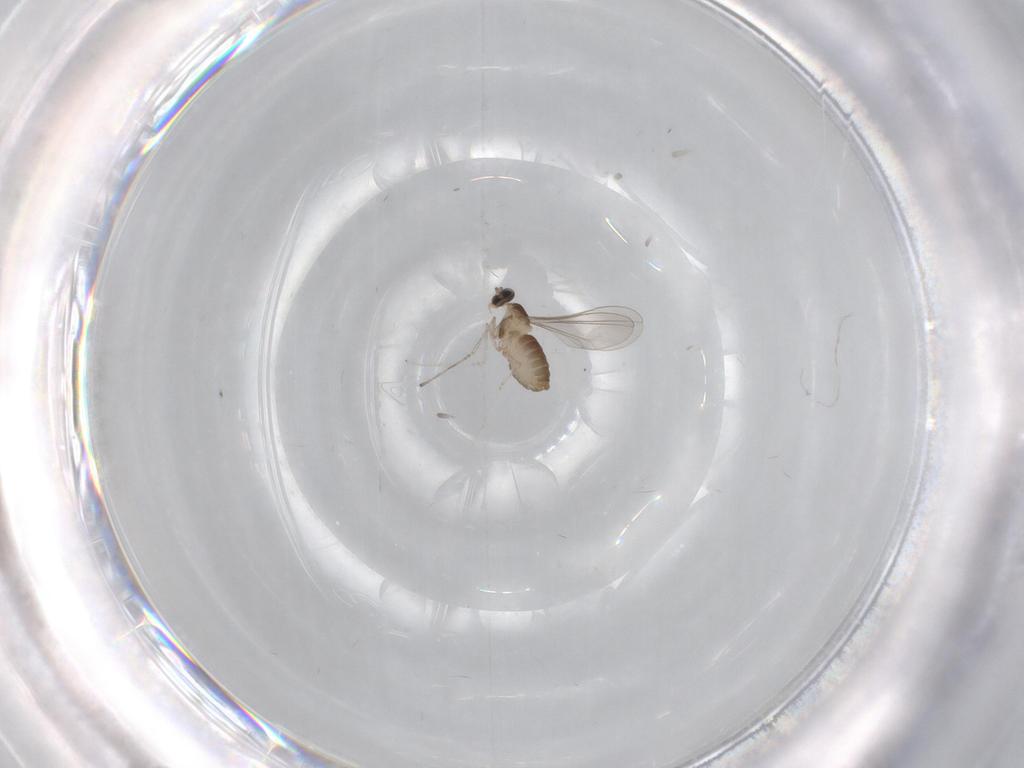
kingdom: Animalia
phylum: Arthropoda
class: Insecta
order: Diptera
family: Cecidomyiidae
